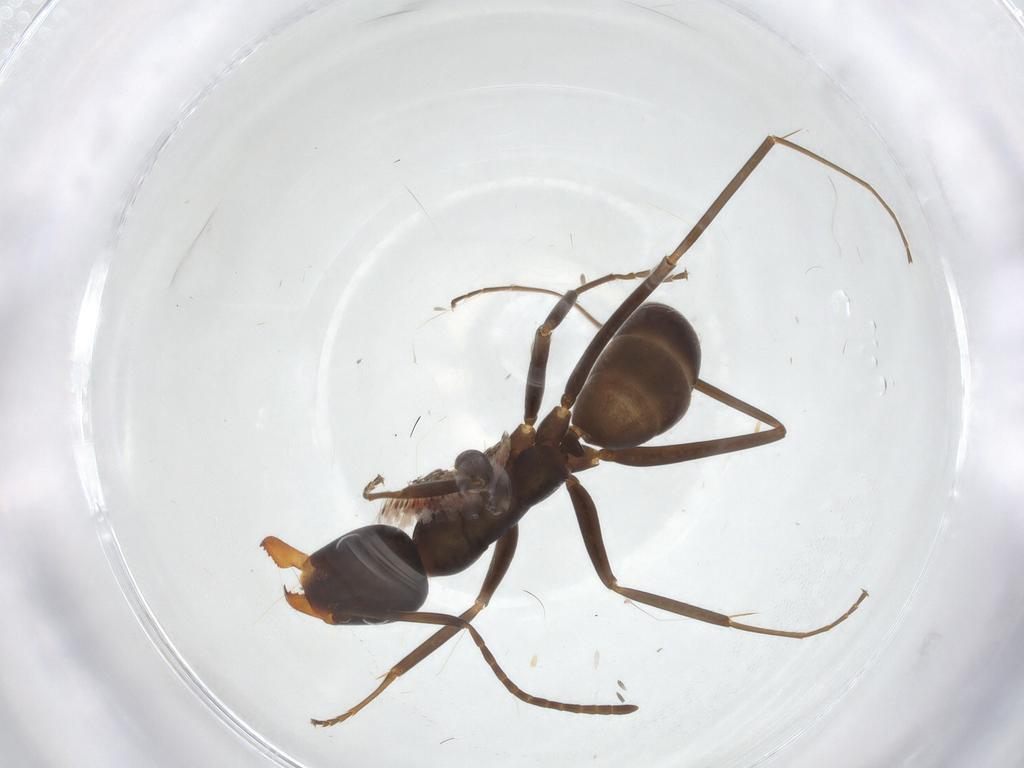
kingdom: Animalia
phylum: Arthropoda
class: Insecta
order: Hymenoptera
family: Formicidae
